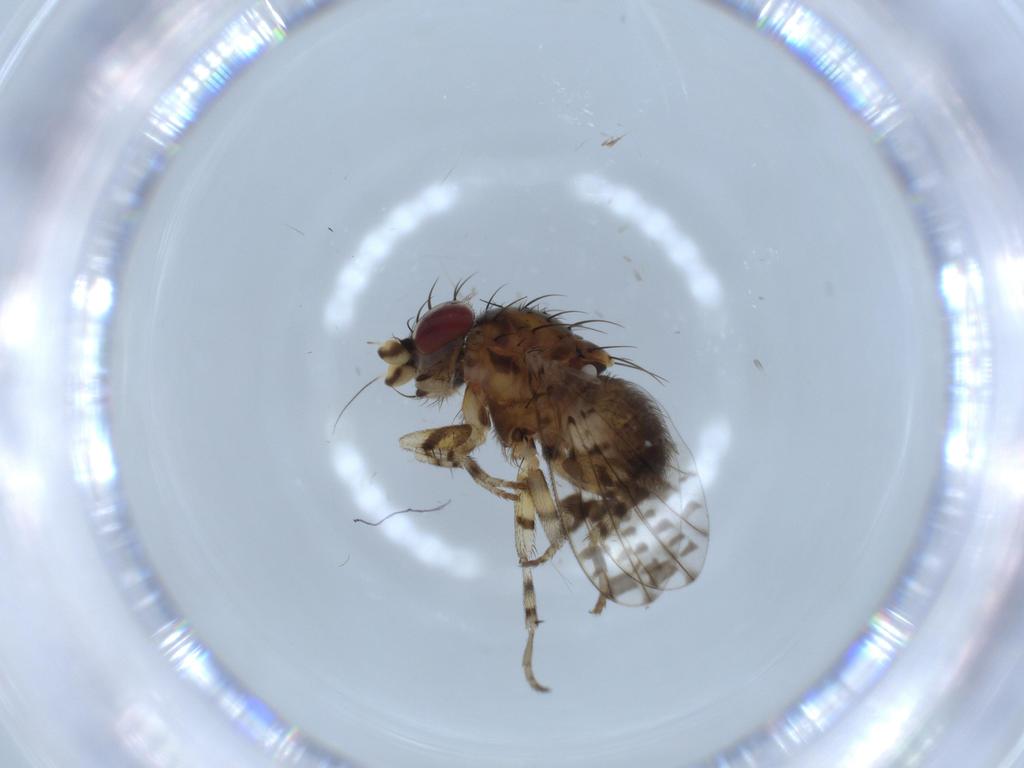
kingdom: Animalia
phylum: Arthropoda
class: Insecta
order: Diptera
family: Odiniidae
